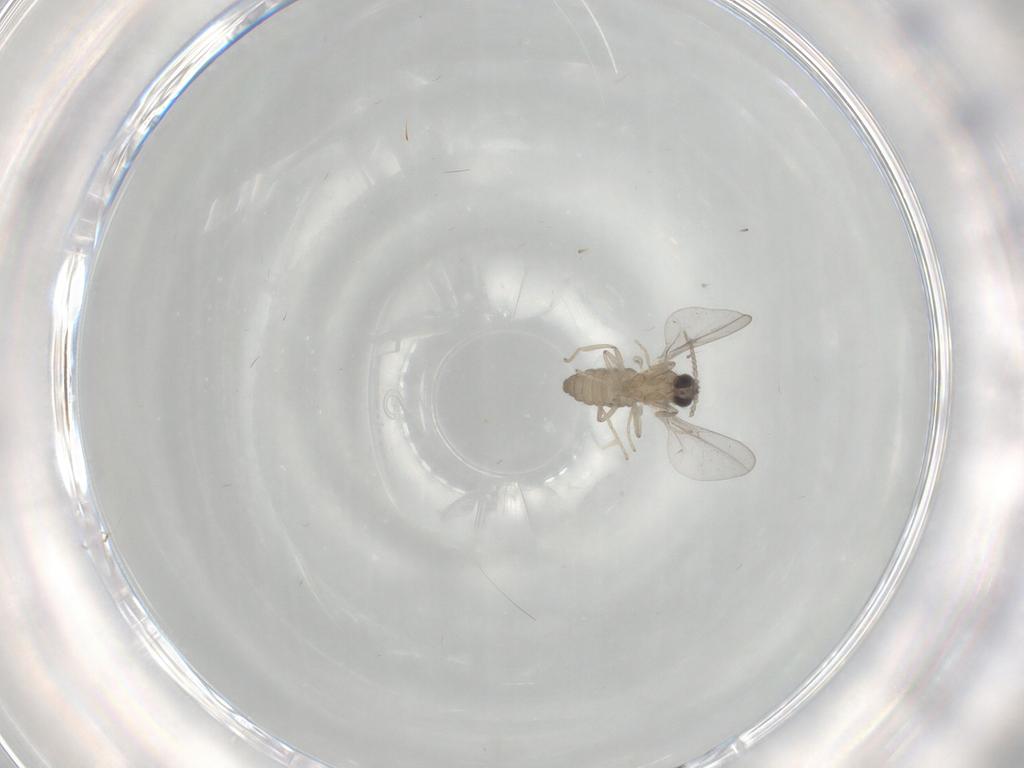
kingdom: Animalia
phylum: Arthropoda
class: Insecta
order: Diptera
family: Cecidomyiidae
